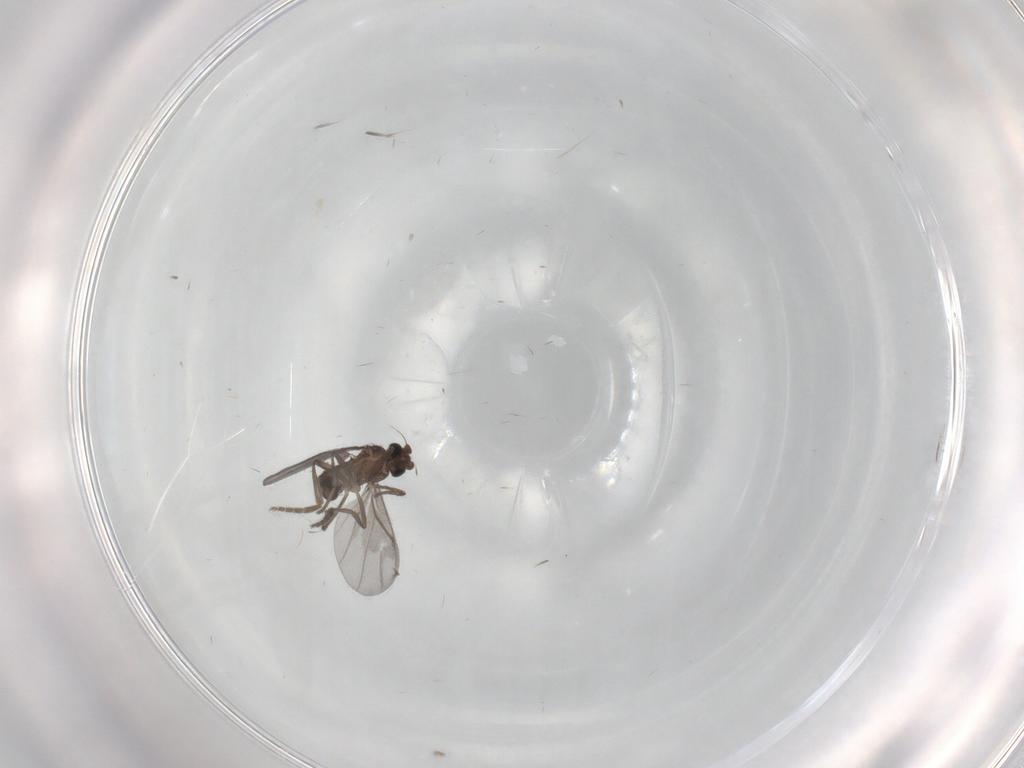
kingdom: Animalia
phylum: Arthropoda
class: Insecta
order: Diptera
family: Phoridae
